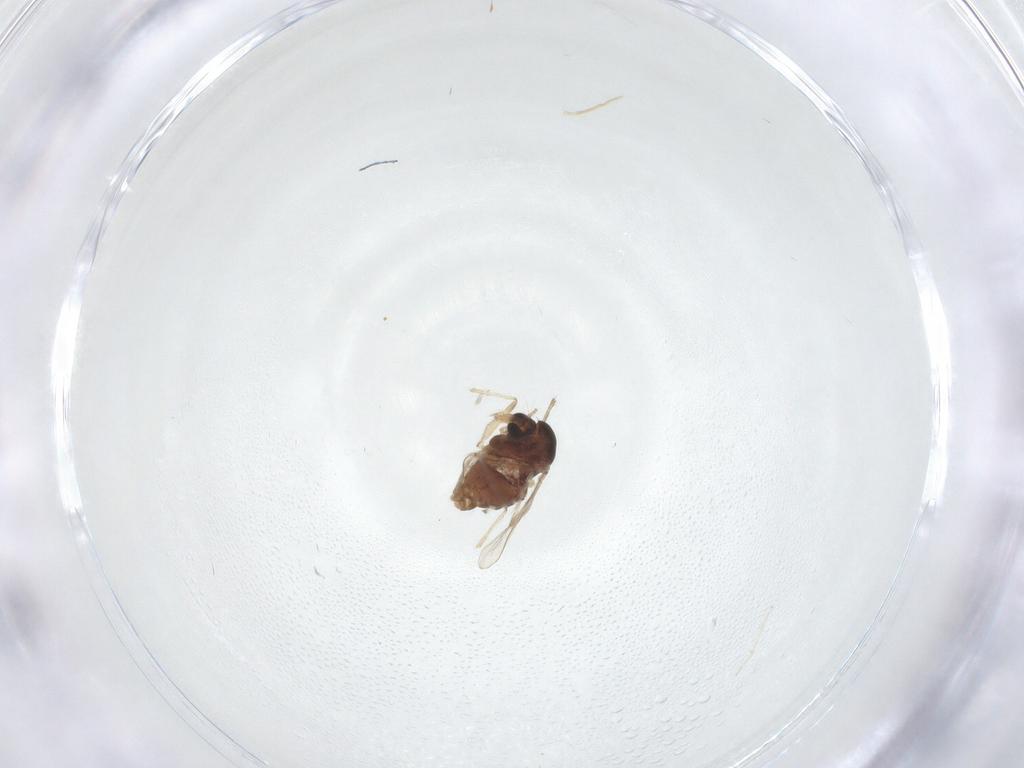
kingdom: Animalia
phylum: Arthropoda
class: Insecta
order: Diptera
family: Chironomidae
